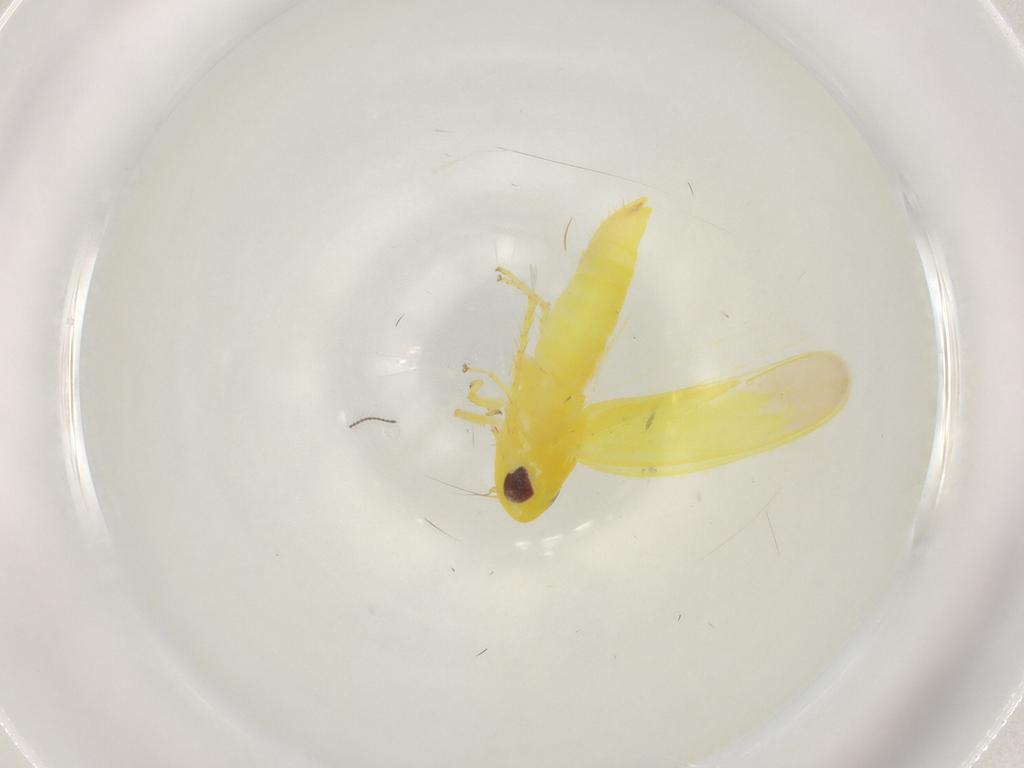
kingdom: Animalia
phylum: Arthropoda
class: Insecta
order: Hemiptera
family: Cicadellidae
